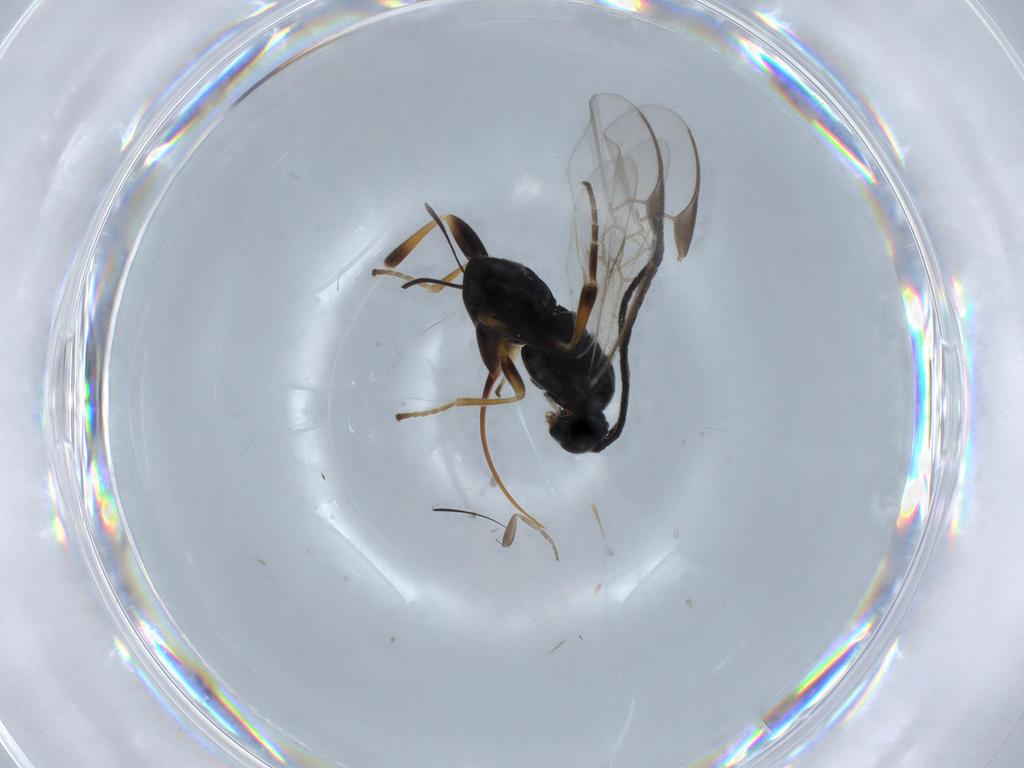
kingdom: Animalia
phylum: Arthropoda
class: Insecta
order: Hymenoptera
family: Braconidae
